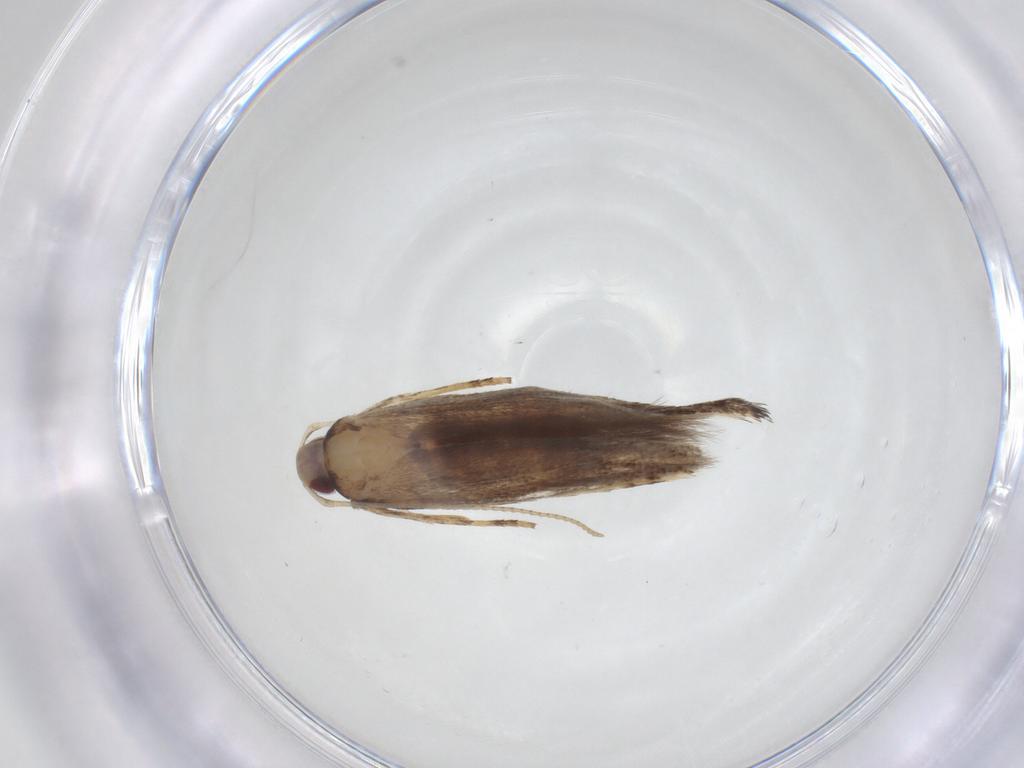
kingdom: Animalia
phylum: Arthropoda
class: Insecta
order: Lepidoptera
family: Cosmopterigidae
